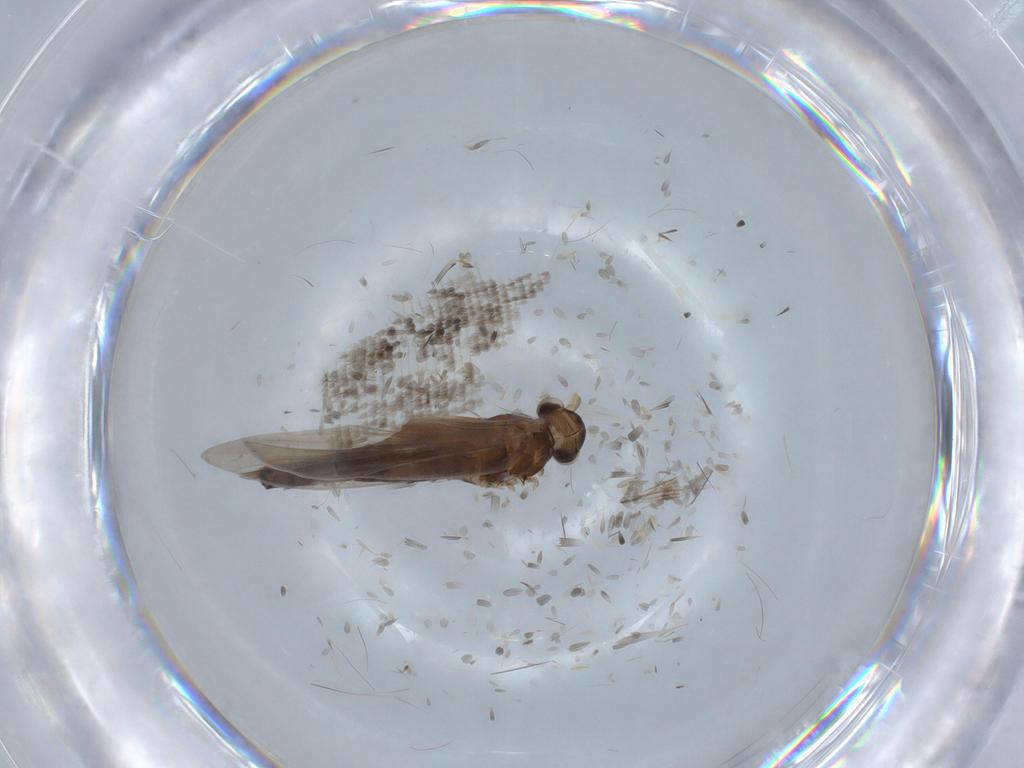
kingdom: Animalia
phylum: Arthropoda
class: Insecta
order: Trichoptera
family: Xiphocentronidae
